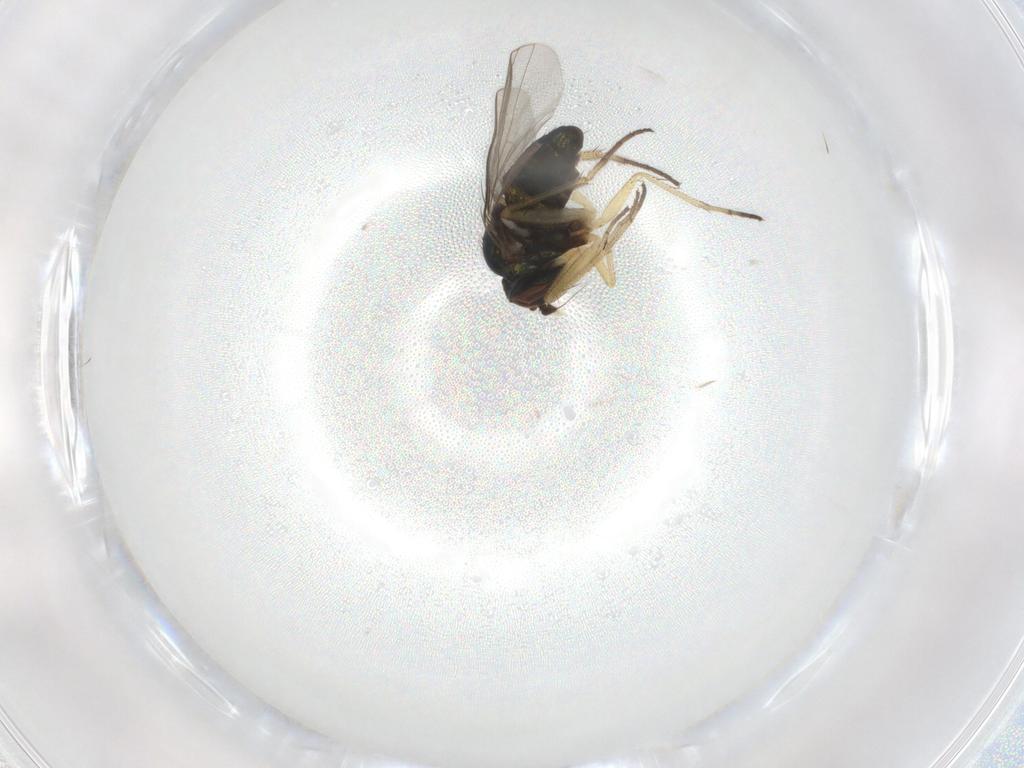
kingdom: Animalia
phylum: Arthropoda
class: Insecta
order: Diptera
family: Dolichopodidae
